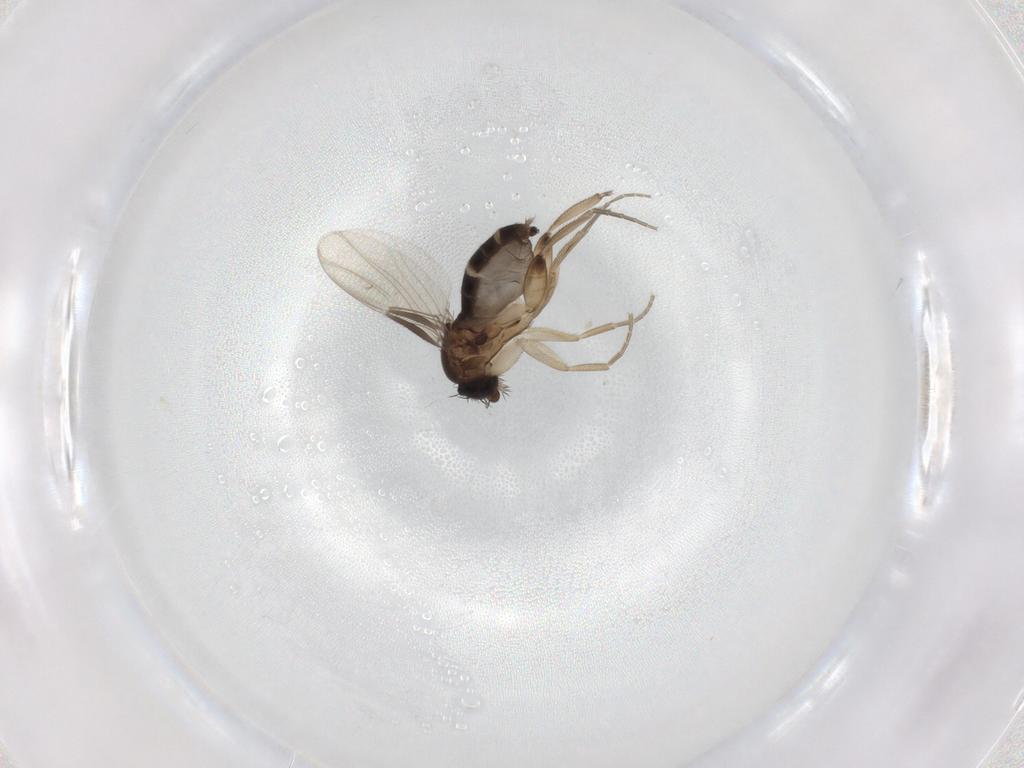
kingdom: Animalia
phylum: Arthropoda
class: Insecta
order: Diptera
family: Phoridae
